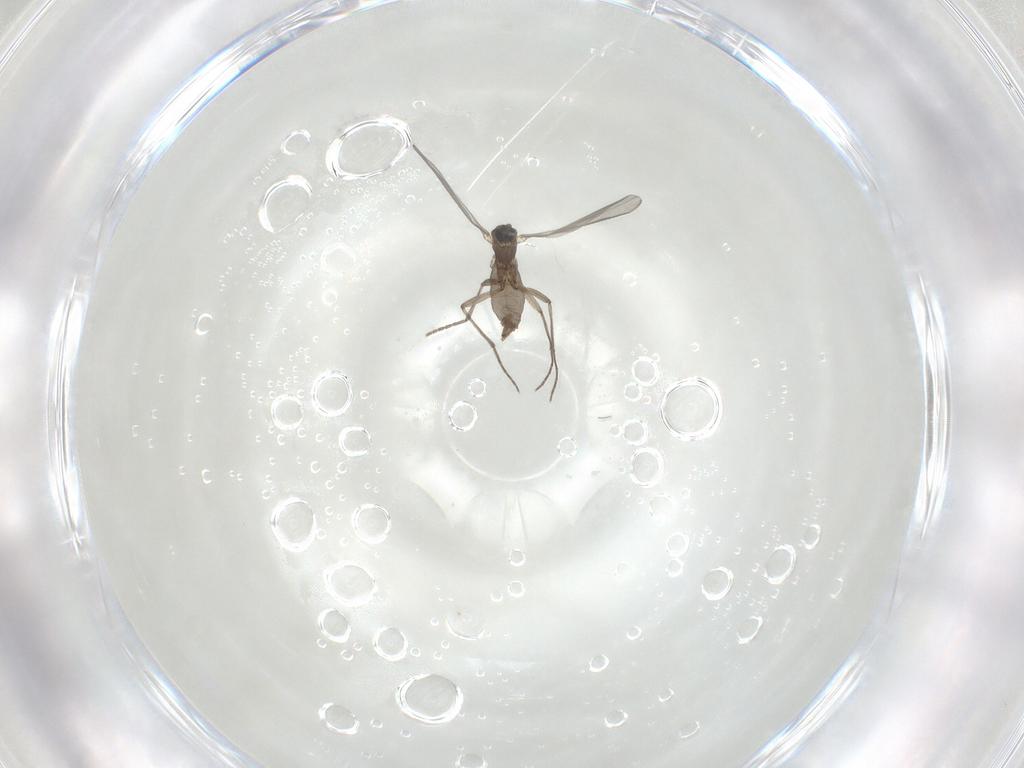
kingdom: Animalia
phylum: Arthropoda
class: Insecta
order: Diptera
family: Sciaridae
